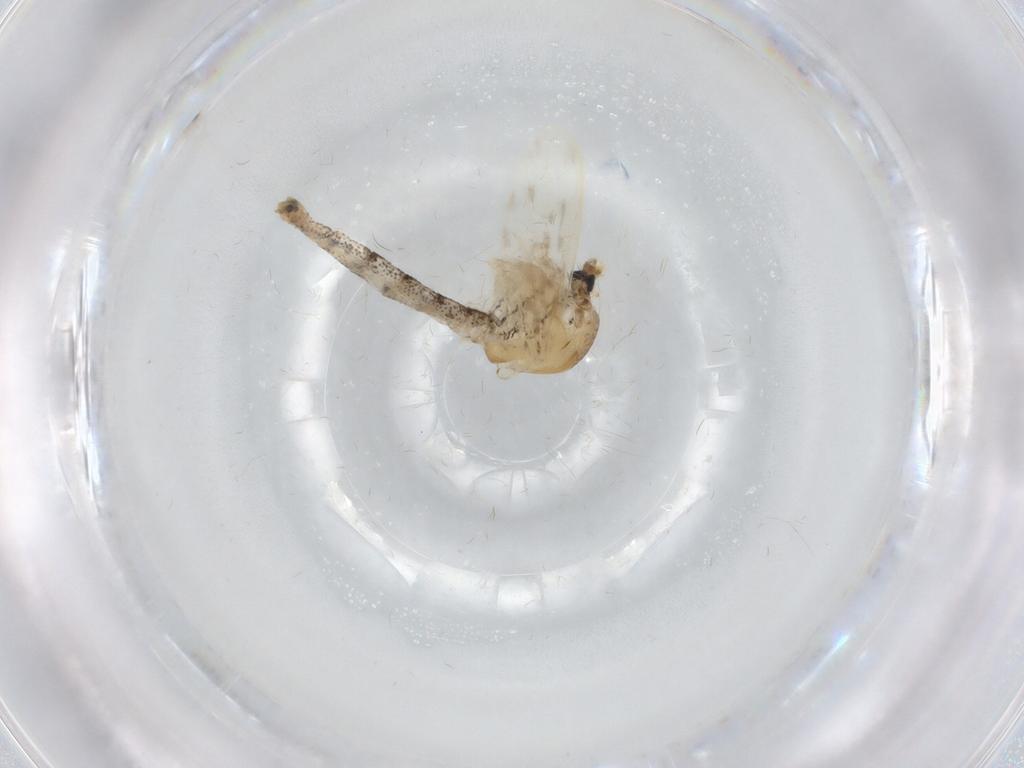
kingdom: Animalia
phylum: Arthropoda
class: Insecta
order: Diptera
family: Chaoboridae
